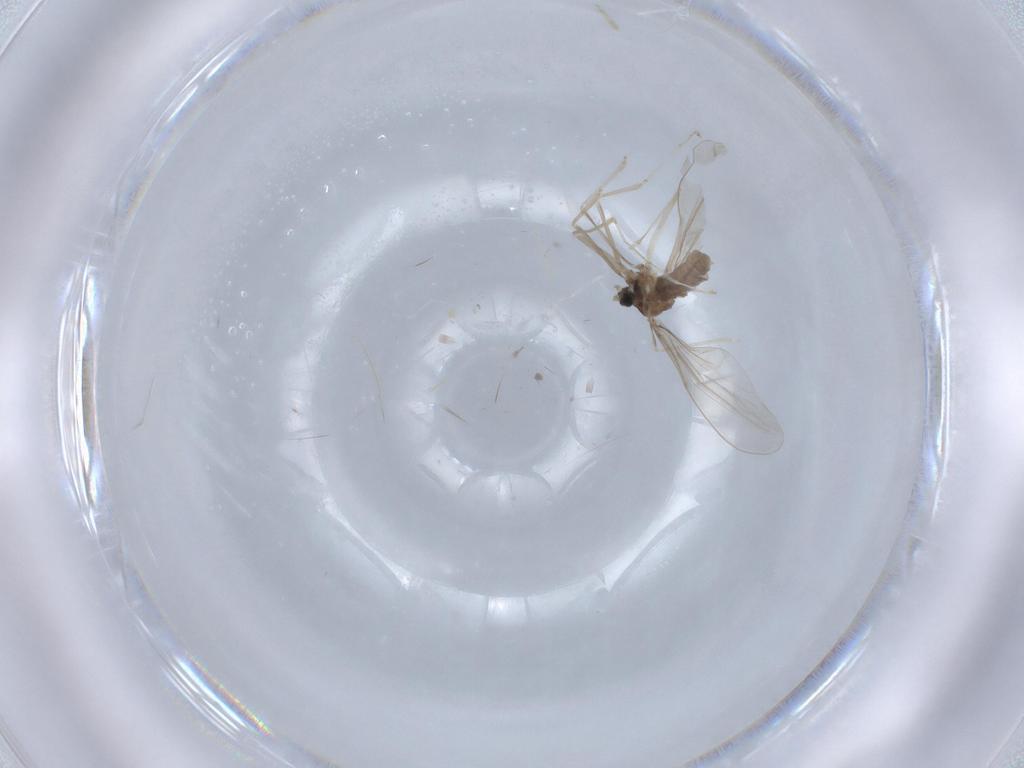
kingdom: Animalia
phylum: Arthropoda
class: Insecta
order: Diptera
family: Mycetophilidae
